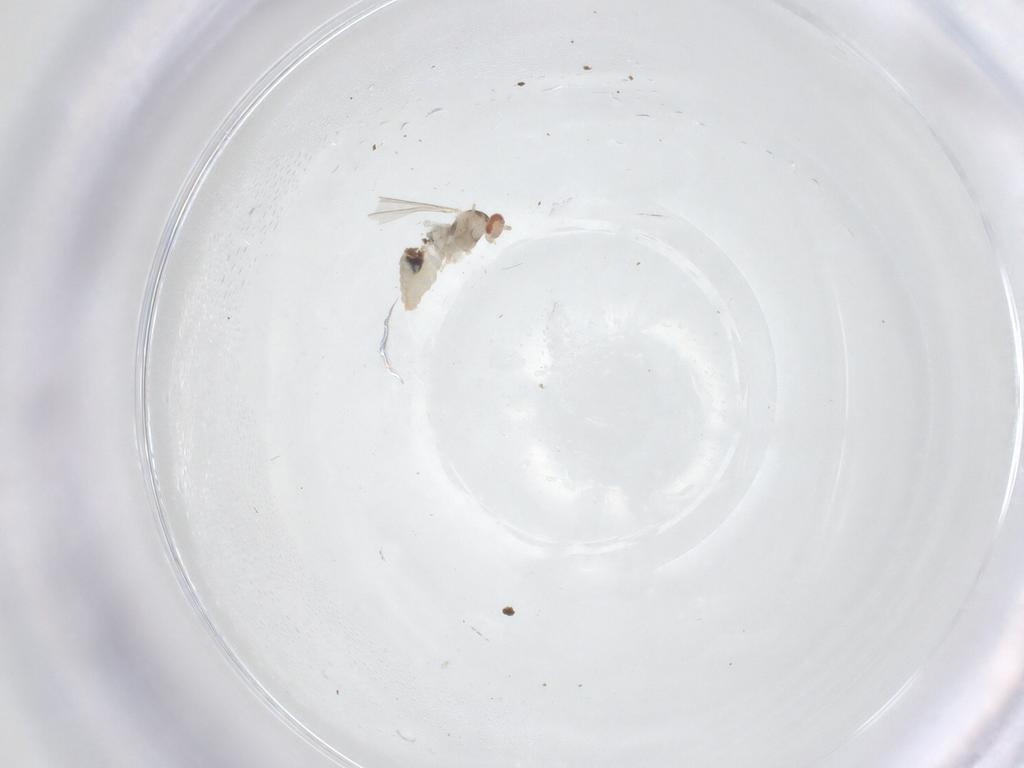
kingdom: Animalia
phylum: Arthropoda
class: Insecta
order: Diptera
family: Cecidomyiidae
